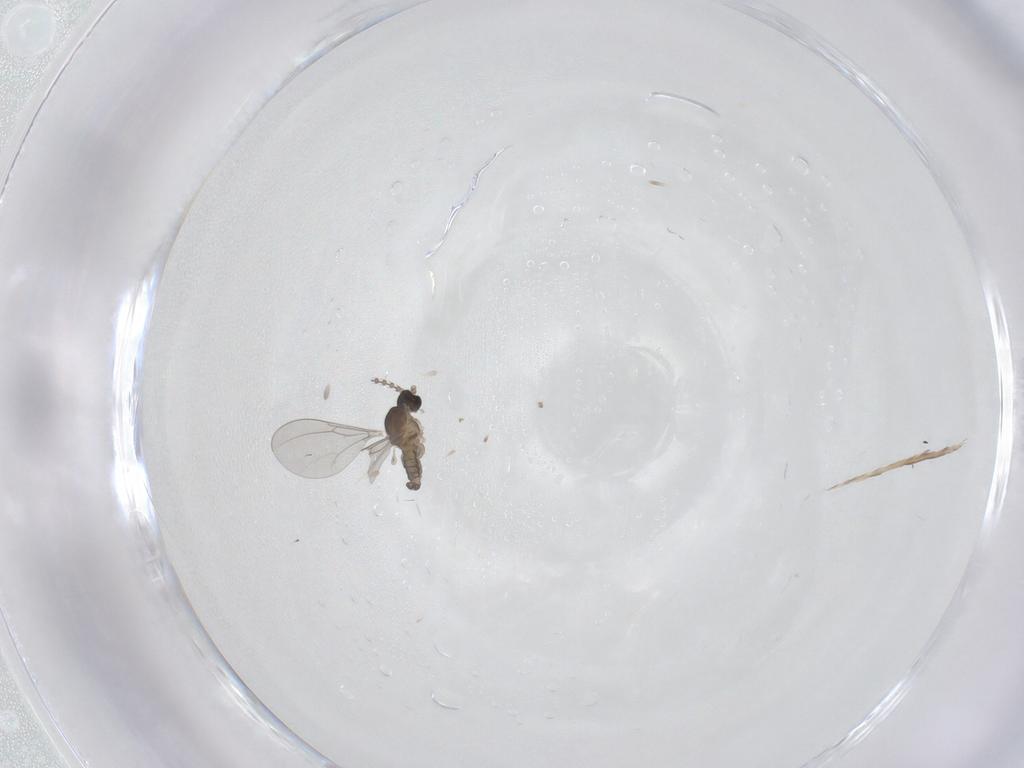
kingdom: Animalia
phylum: Arthropoda
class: Insecta
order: Diptera
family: Cecidomyiidae
